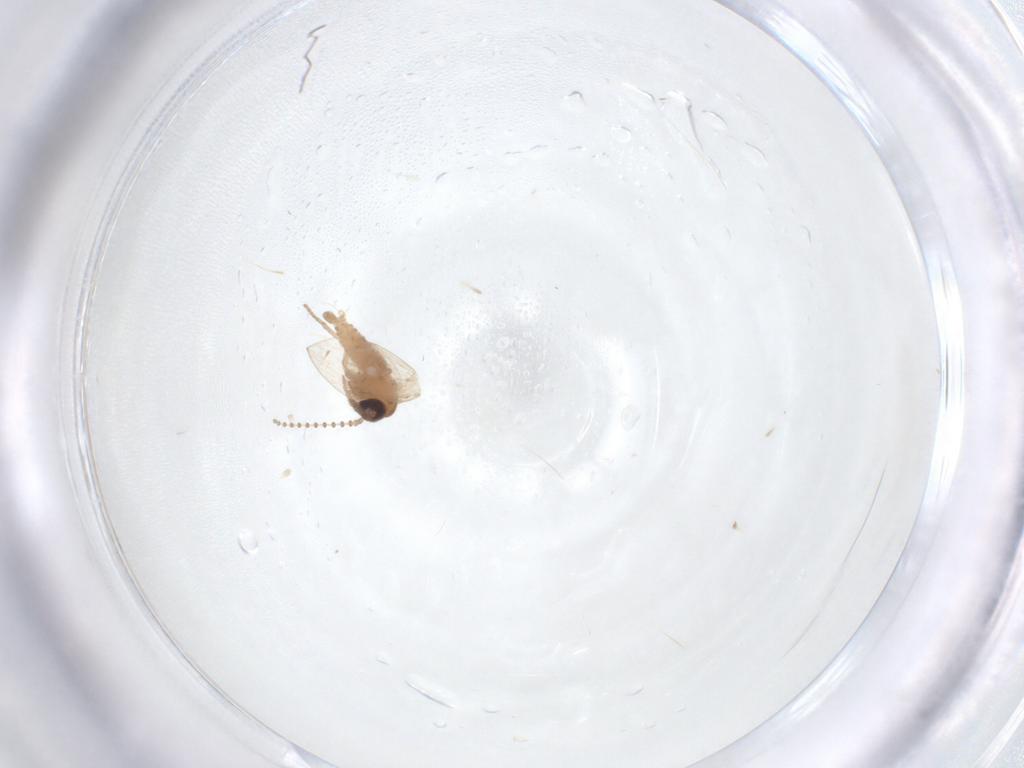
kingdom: Animalia
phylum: Arthropoda
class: Insecta
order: Diptera
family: Psychodidae
